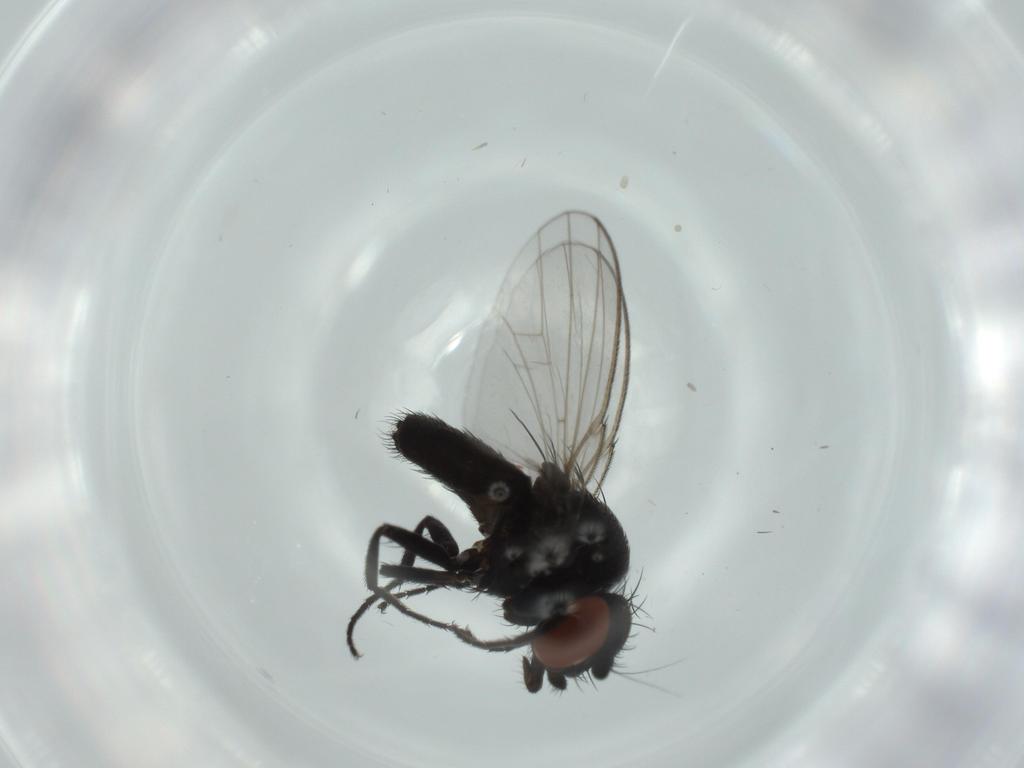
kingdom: Animalia
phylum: Arthropoda
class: Insecta
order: Diptera
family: Milichiidae
